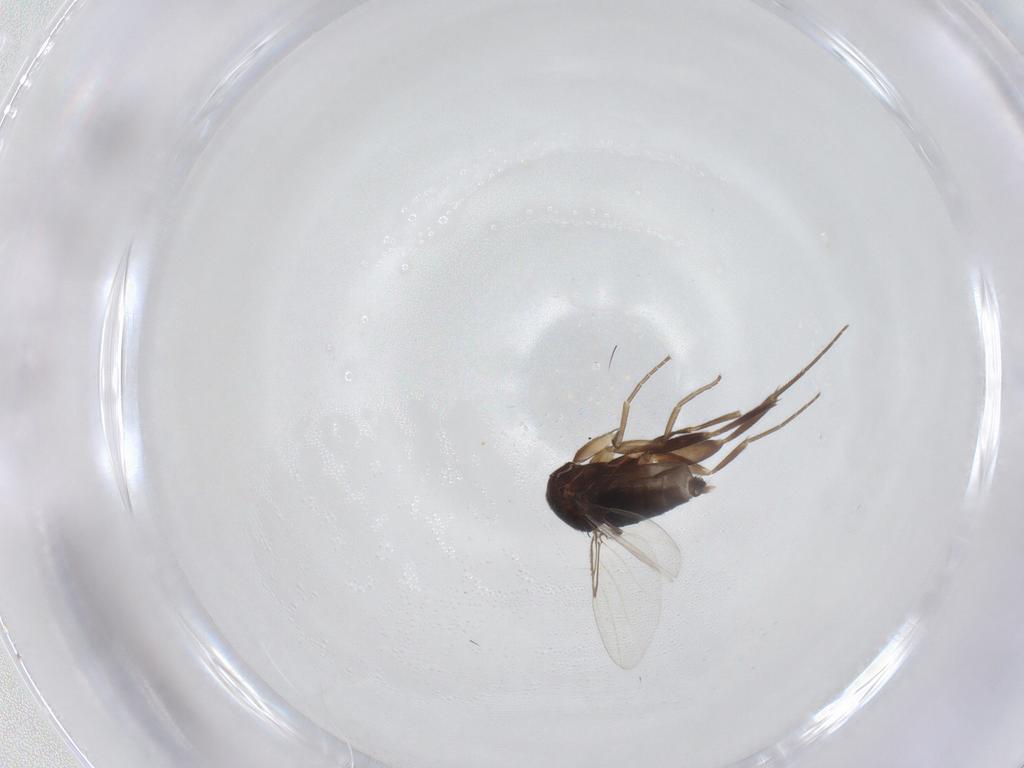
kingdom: Animalia
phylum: Arthropoda
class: Insecta
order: Diptera
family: Phoridae
